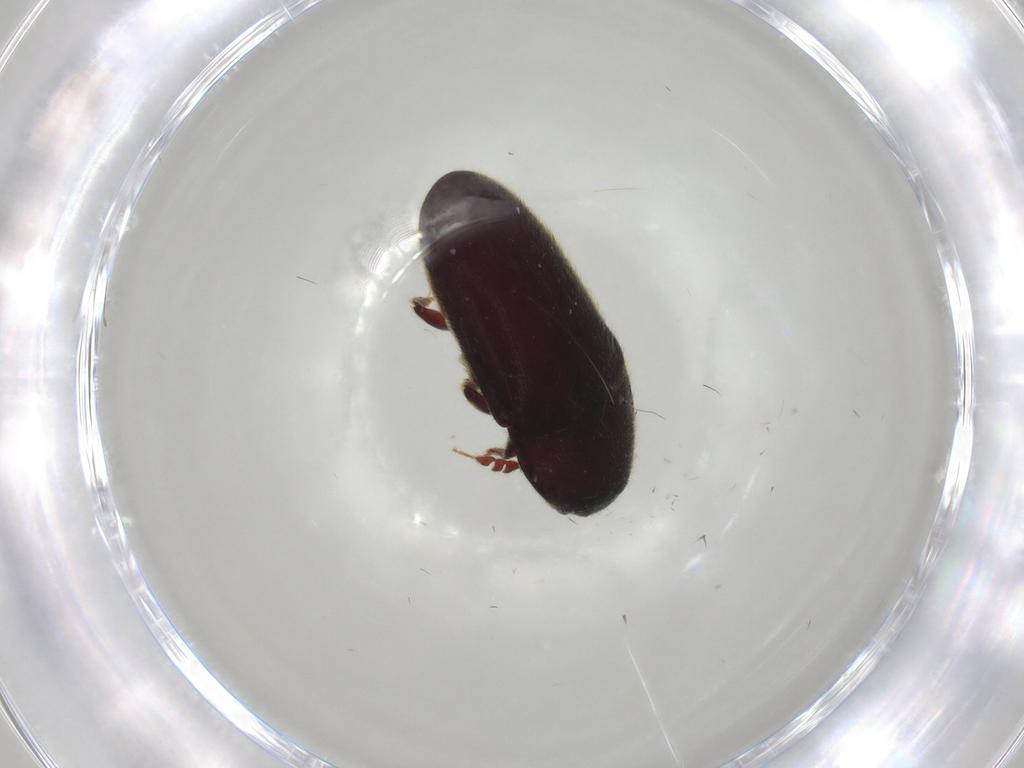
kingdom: Animalia
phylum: Arthropoda
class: Insecta
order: Coleoptera
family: Throscidae
